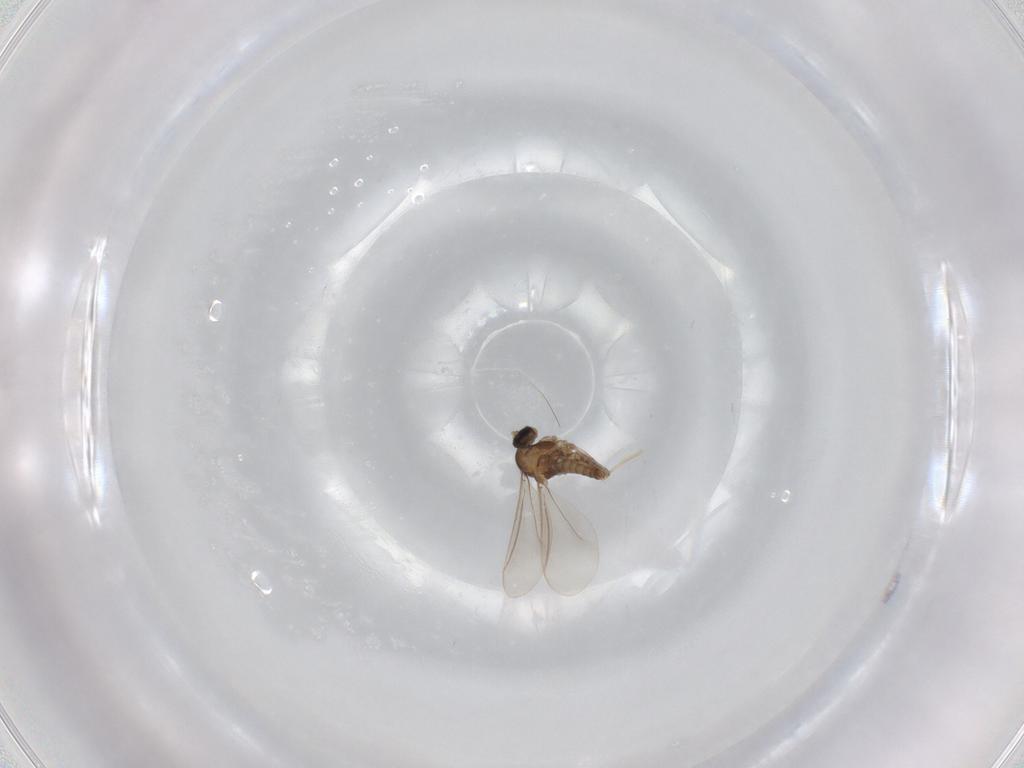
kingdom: Animalia
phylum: Arthropoda
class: Insecta
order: Diptera
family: Cecidomyiidae
